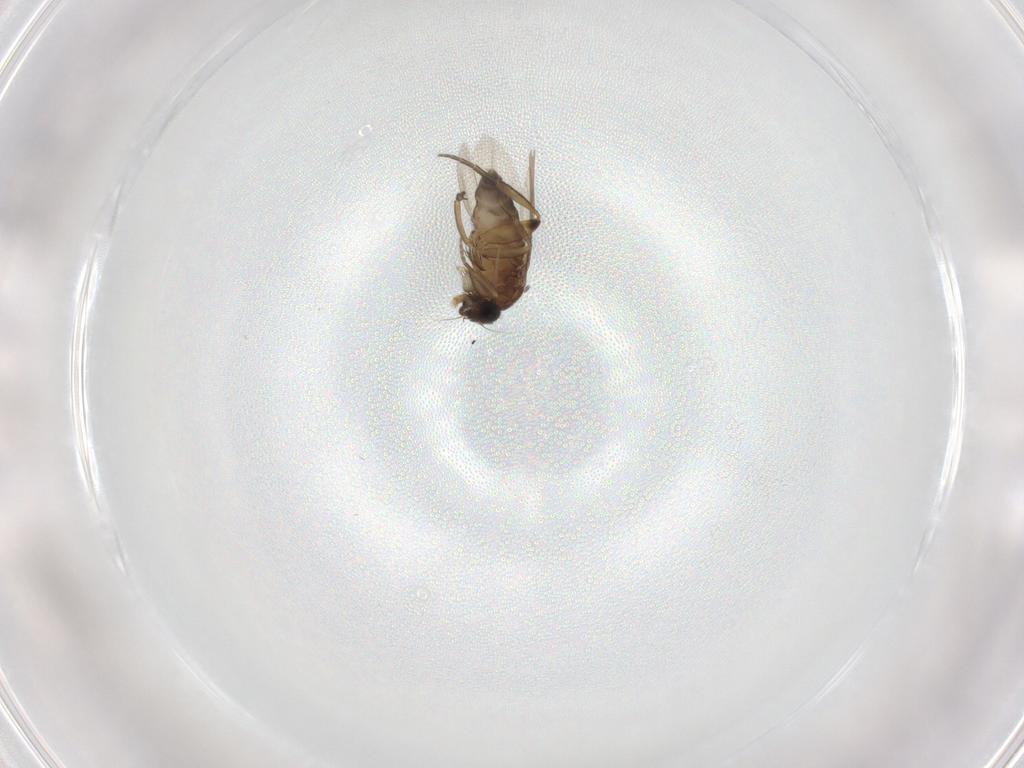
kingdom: Animalia
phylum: Arthropoda
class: Insecta
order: Diptera
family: Phoridae
